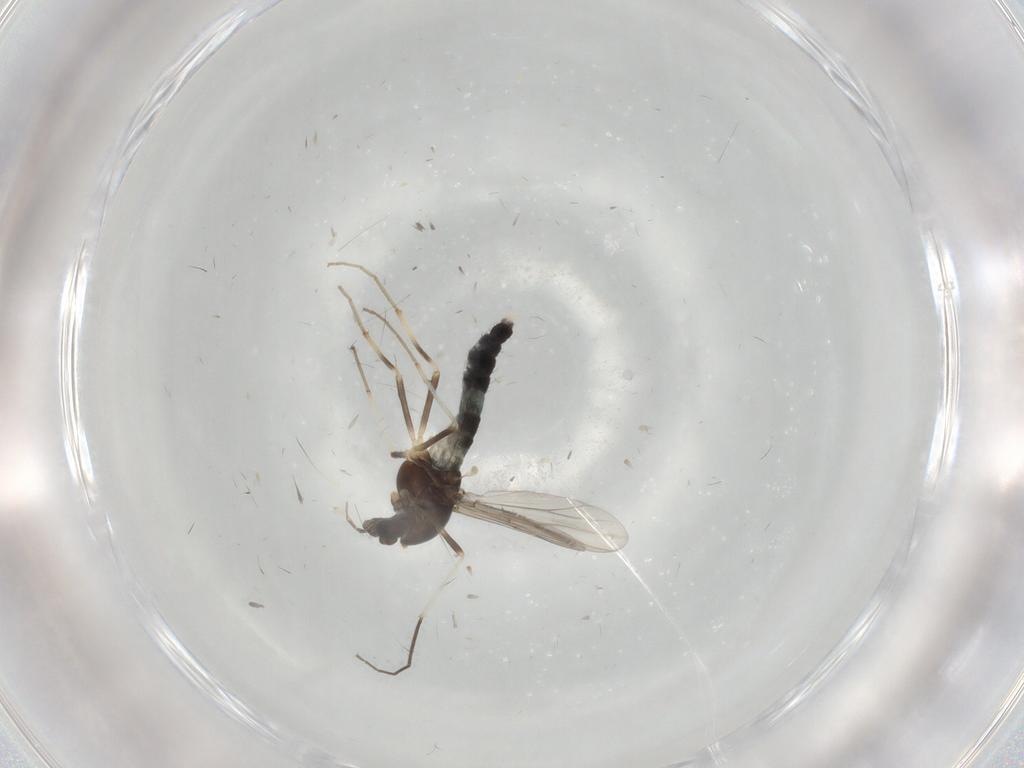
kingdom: Animalia
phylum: Arthropoda
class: Insecta
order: Diptera
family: Chironomidae
